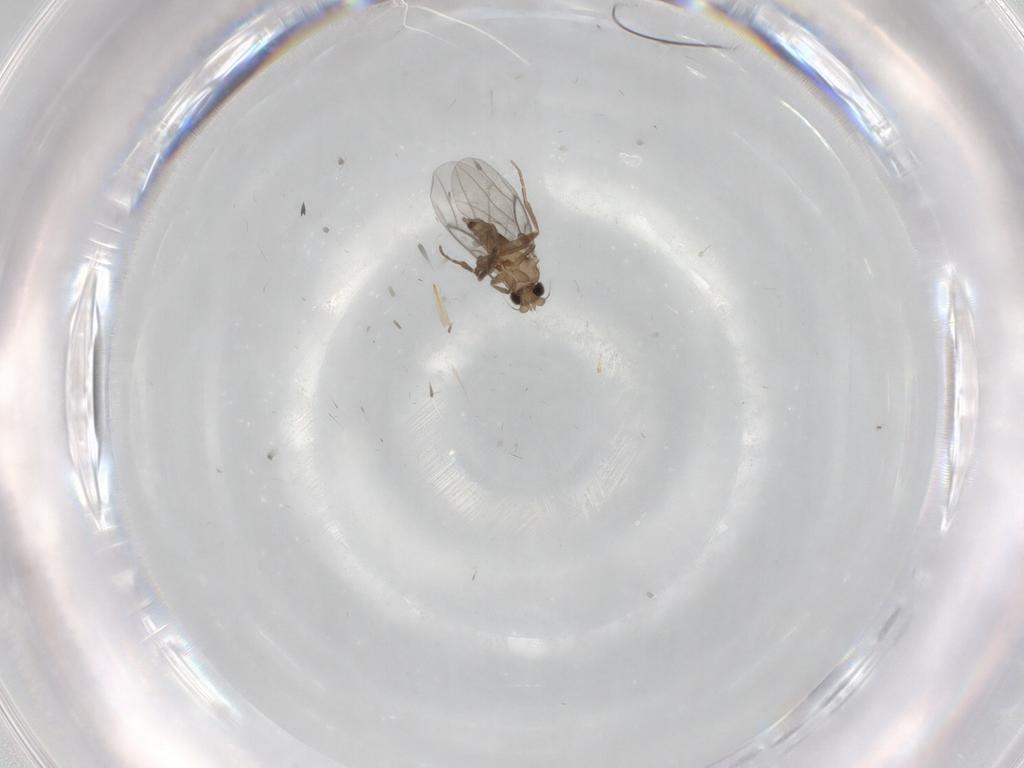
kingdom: Animalia
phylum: Arthropoda
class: Insecta
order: Diptera
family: Sciaridae
